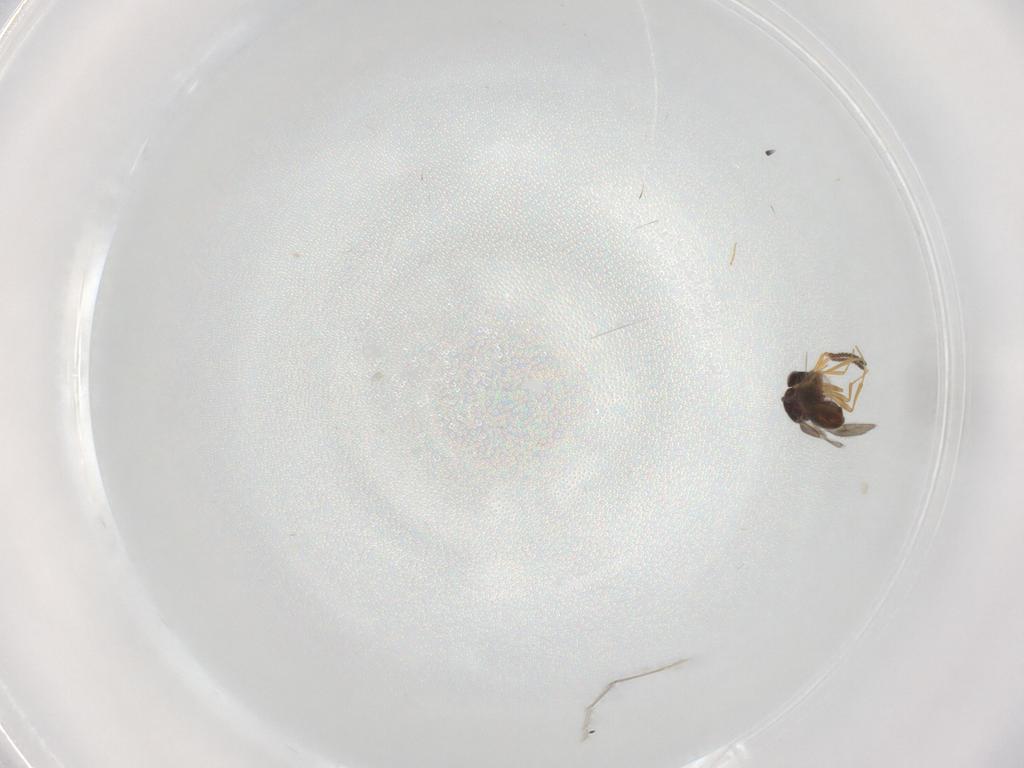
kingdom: Animalia
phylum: Arthropoda
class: Insecta
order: Hymenoptera
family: Scelionidae
